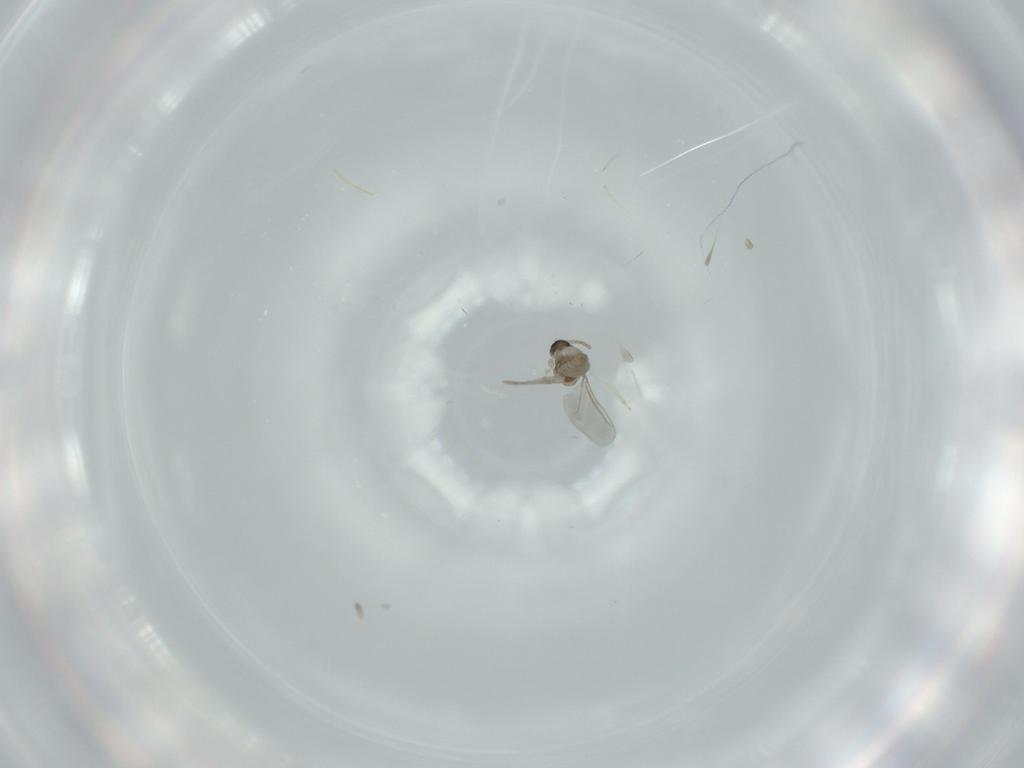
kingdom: Animalia
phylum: Arthropoda
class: Insecta
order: Diptera
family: Cecidomyiidae
